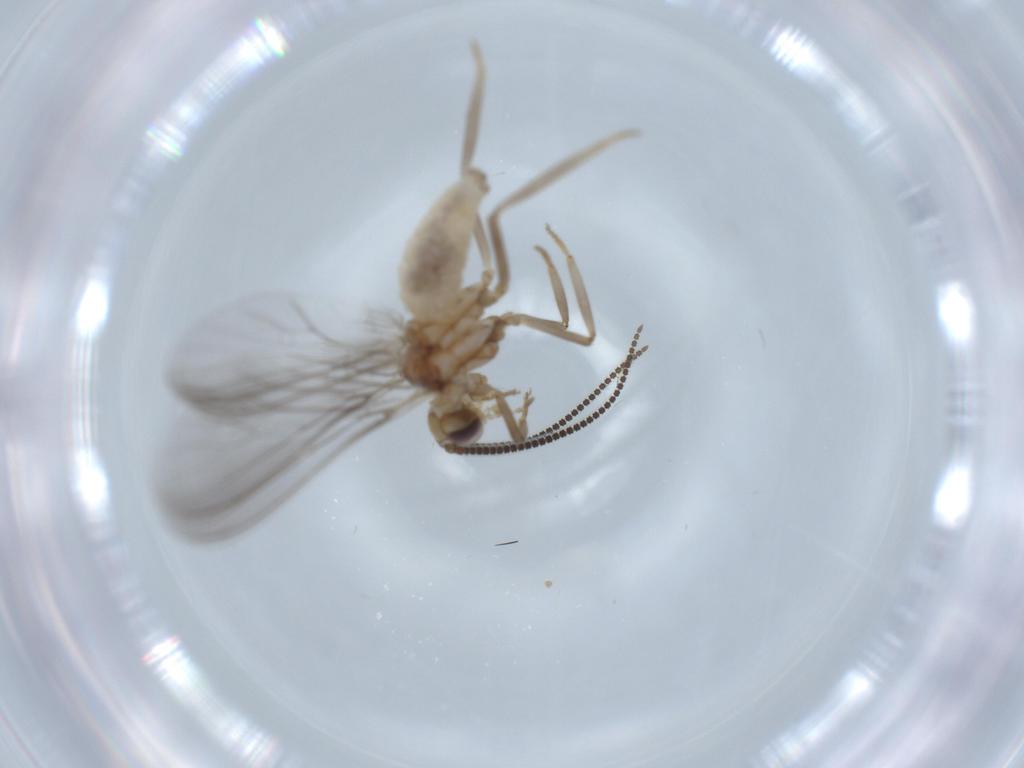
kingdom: Animalia
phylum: Arthropoda
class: Insecta
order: Neuroptera
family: Coniopterygidae
